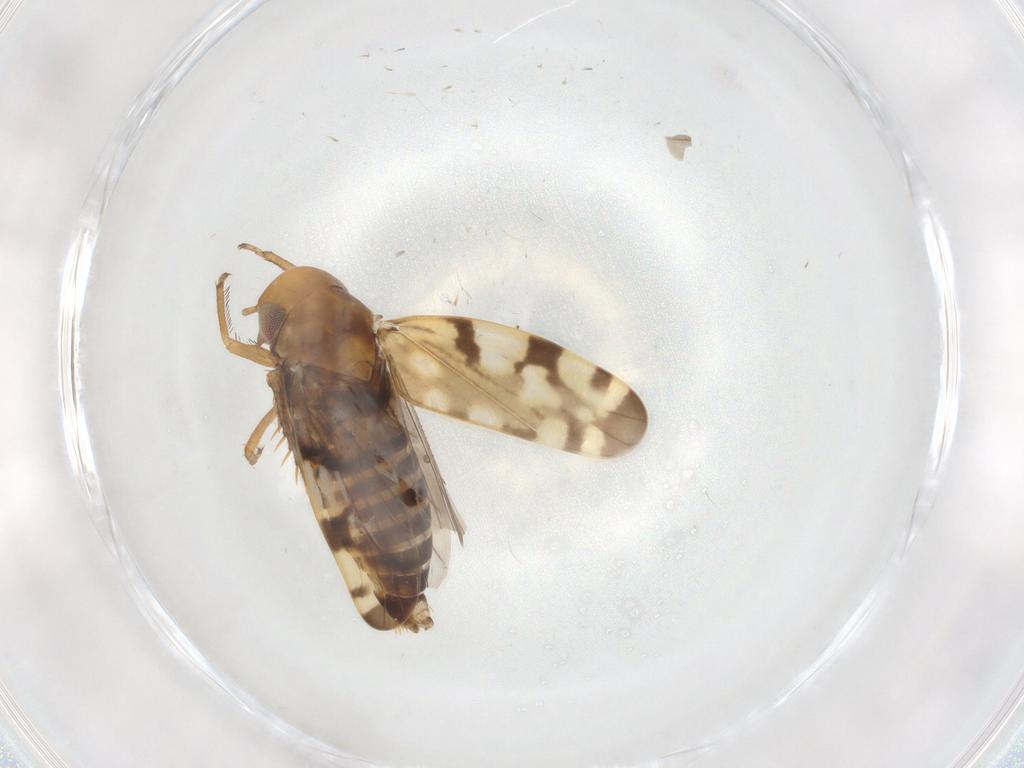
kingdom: Animalia
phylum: Arthropoda
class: Insecta
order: Hemiptera
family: Cicadellidae
